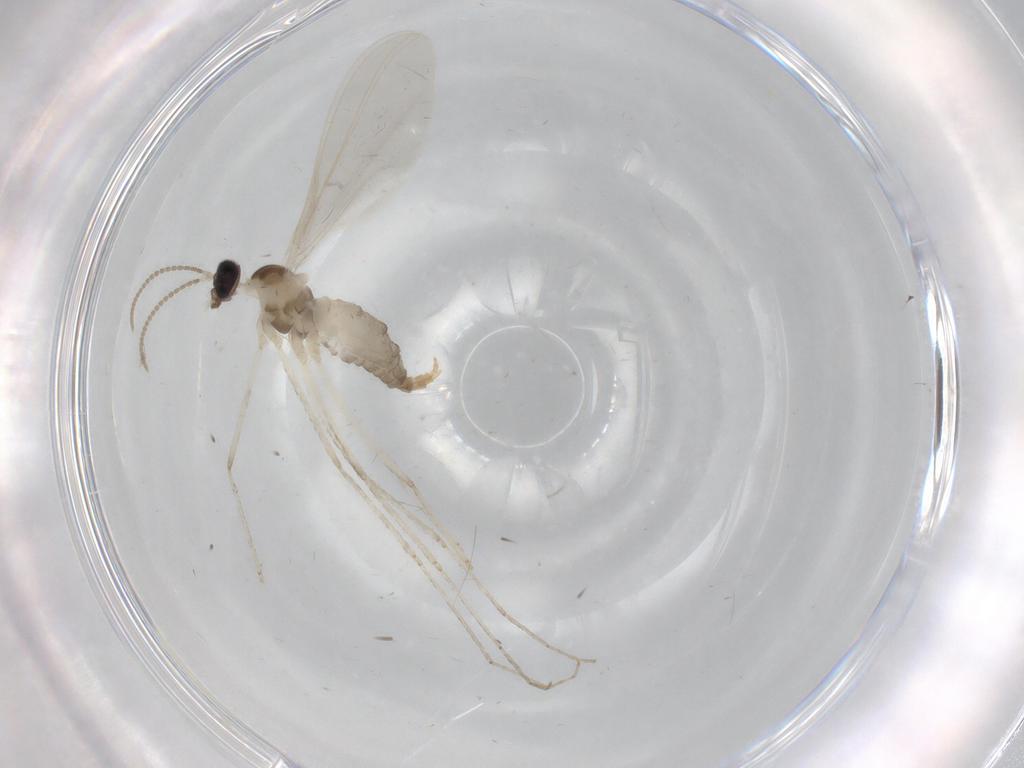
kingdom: Animalia
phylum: Arthropoda
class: Insecta
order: Diptera
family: Cecidomyiidae
